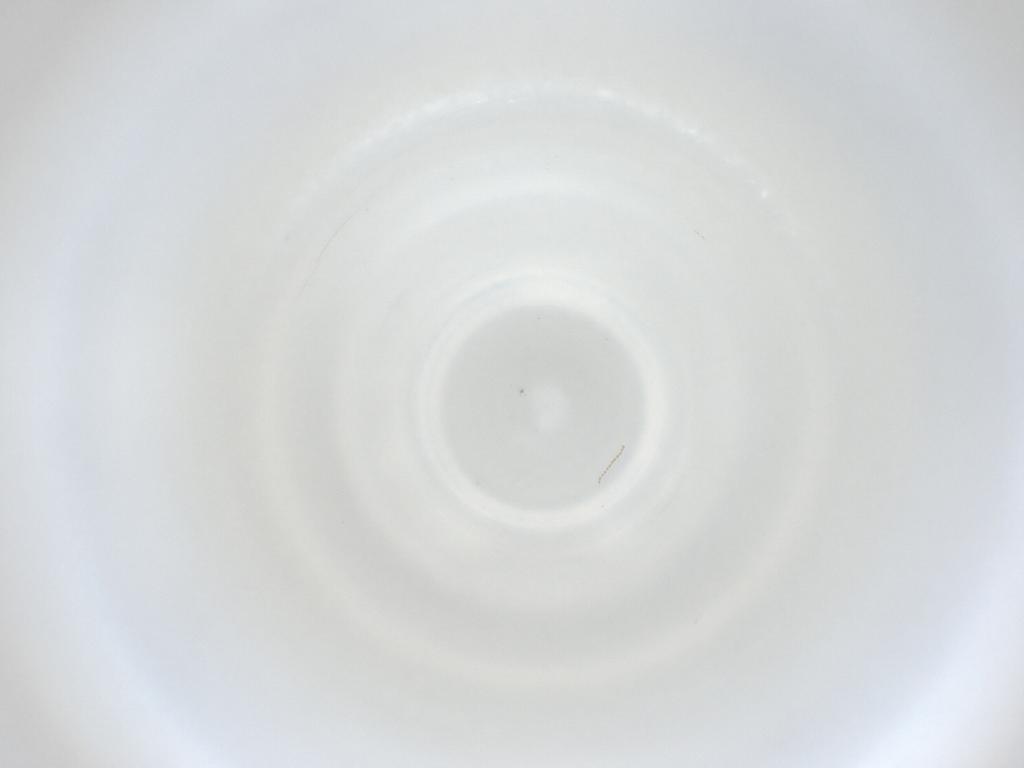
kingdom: Animalia
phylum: Arthropoda
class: Insecta
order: Diptera
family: Cecidomyiidae
